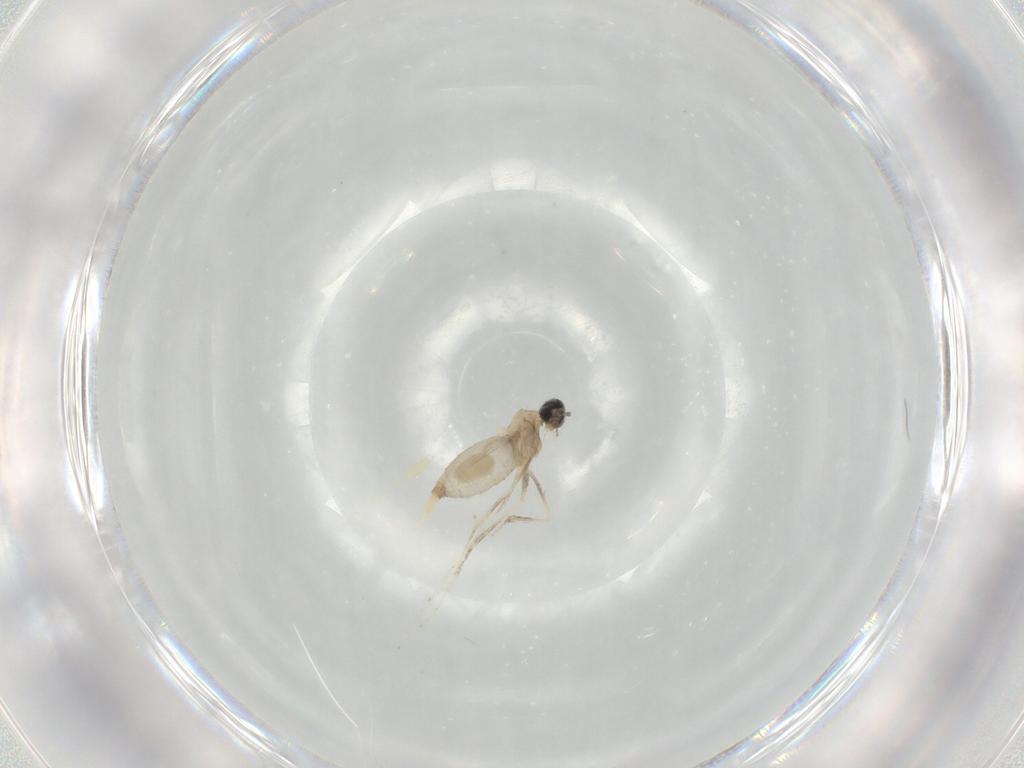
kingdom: Animalia
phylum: Arthropoda
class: Insecta
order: Diptera
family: Cecidomyiidae
